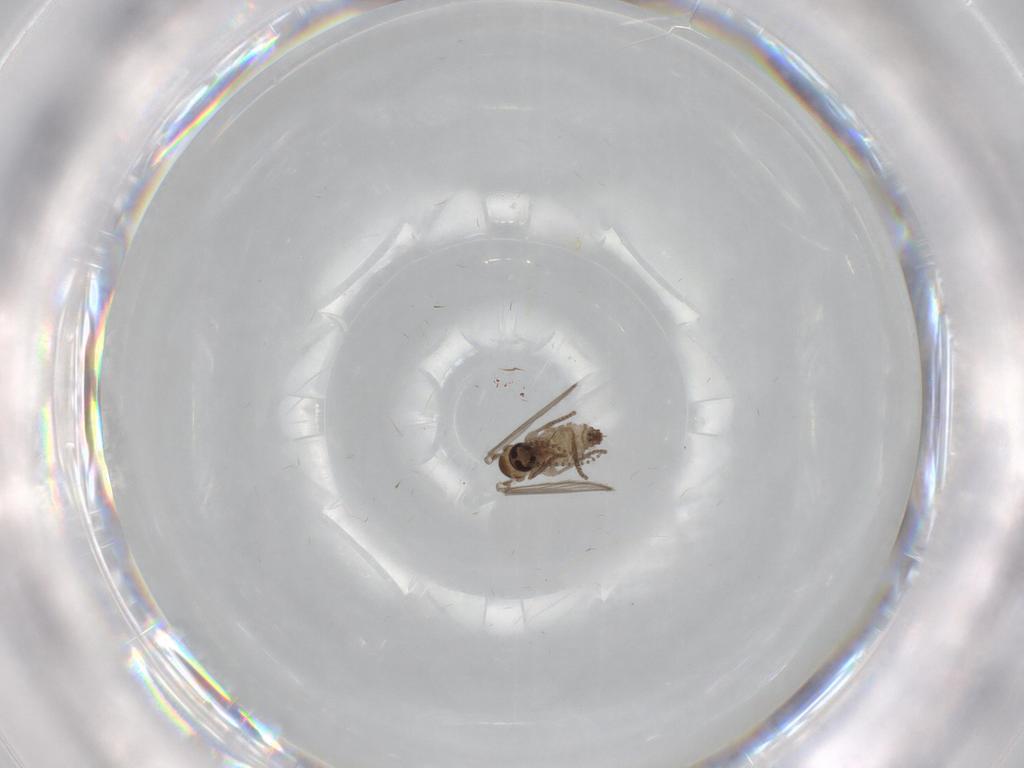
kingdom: Animalia
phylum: Arthropoda
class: Insecta
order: Diptera
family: Psychodidae
